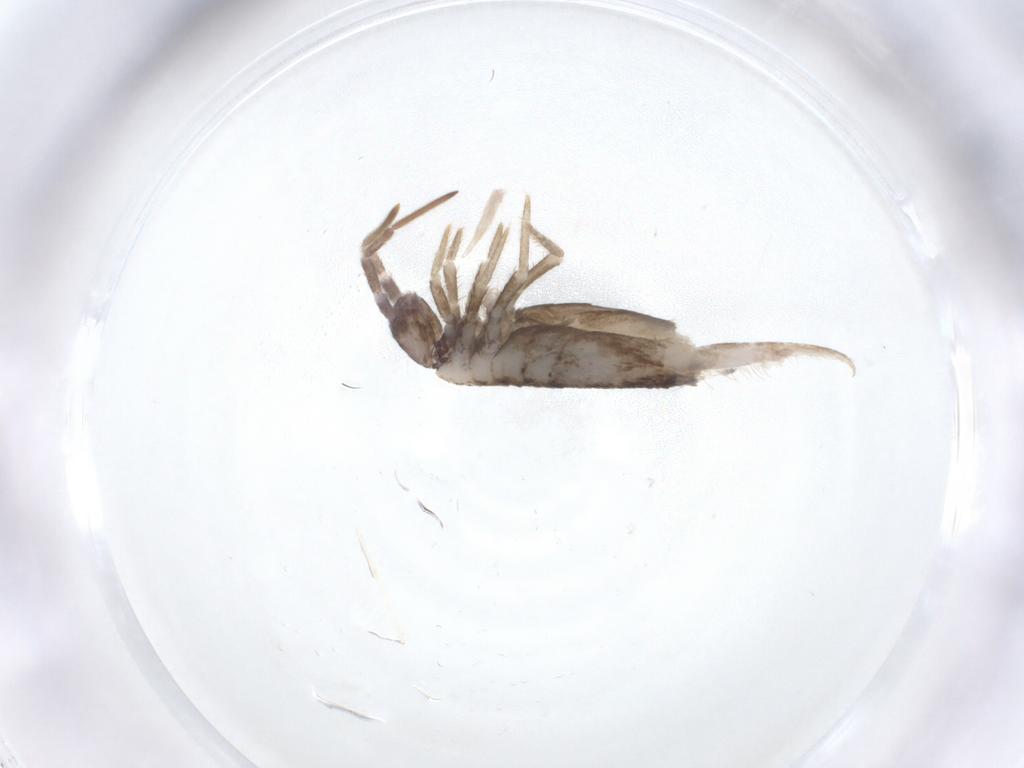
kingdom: Animalia
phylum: Arthropoda
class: Collembola
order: Entomobryomorpha
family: Entomobryidae
